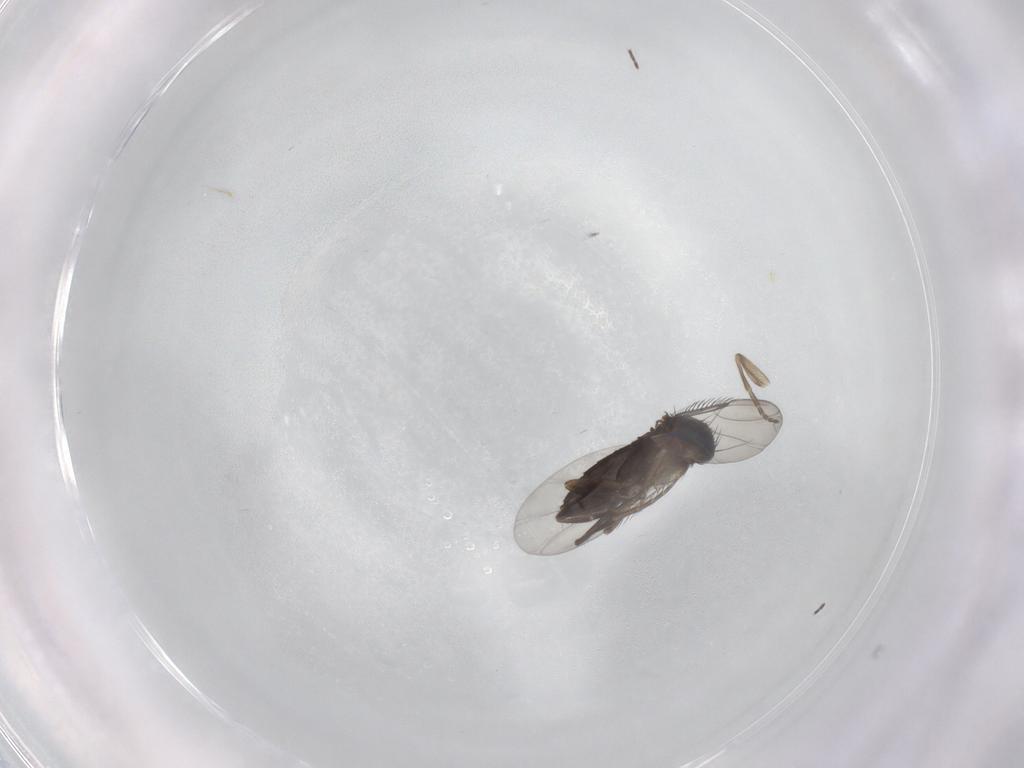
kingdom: Animalia
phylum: Arthropoda
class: Insecta
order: Diptera
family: Phoridae
